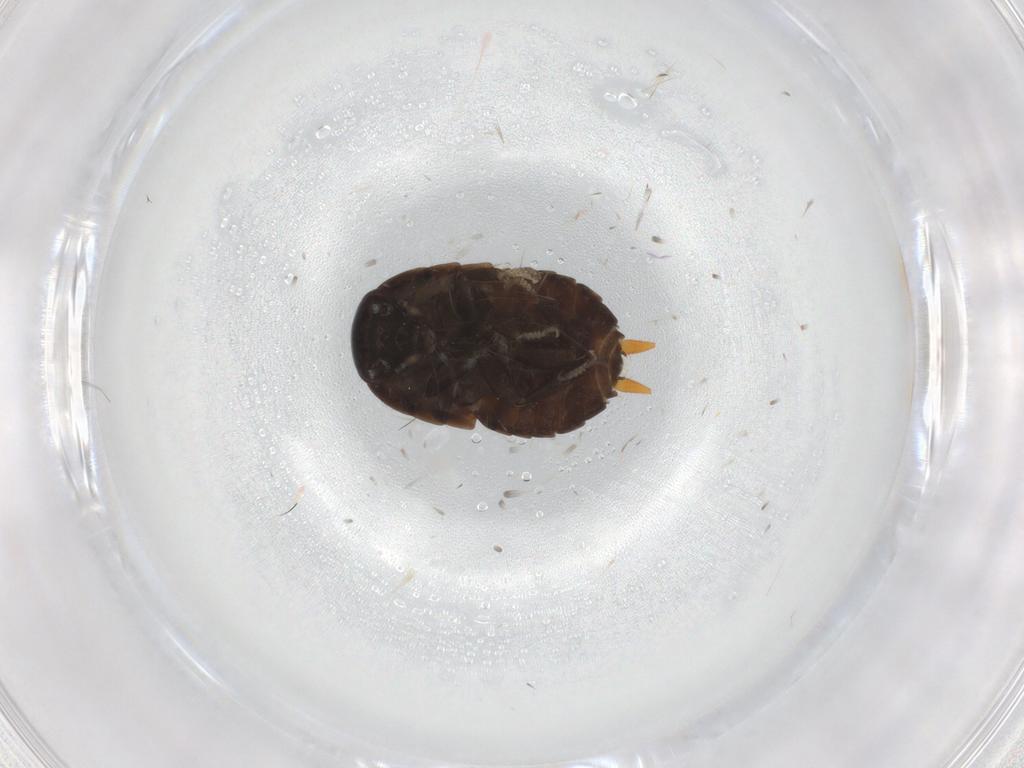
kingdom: Animalia
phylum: Arthropoda
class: Insecta
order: Blattodea
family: Pseudophyllodromiidae
